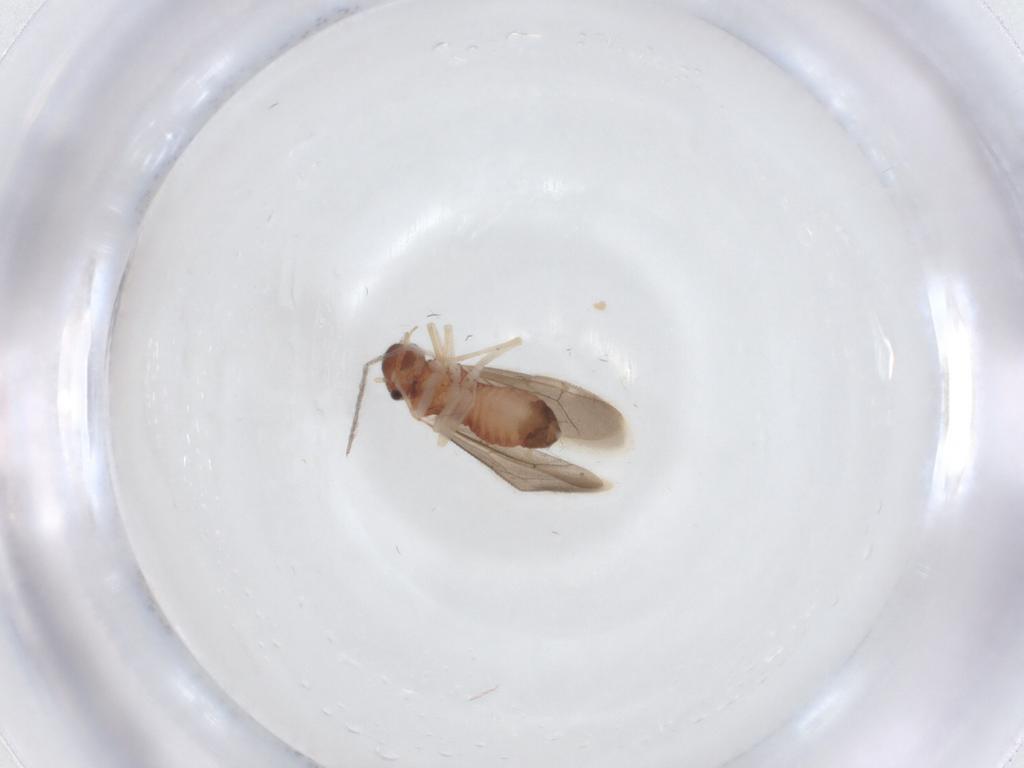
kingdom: Animalia
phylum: Arthropoda
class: Insecta
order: Psocodea
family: Archipsocidae
